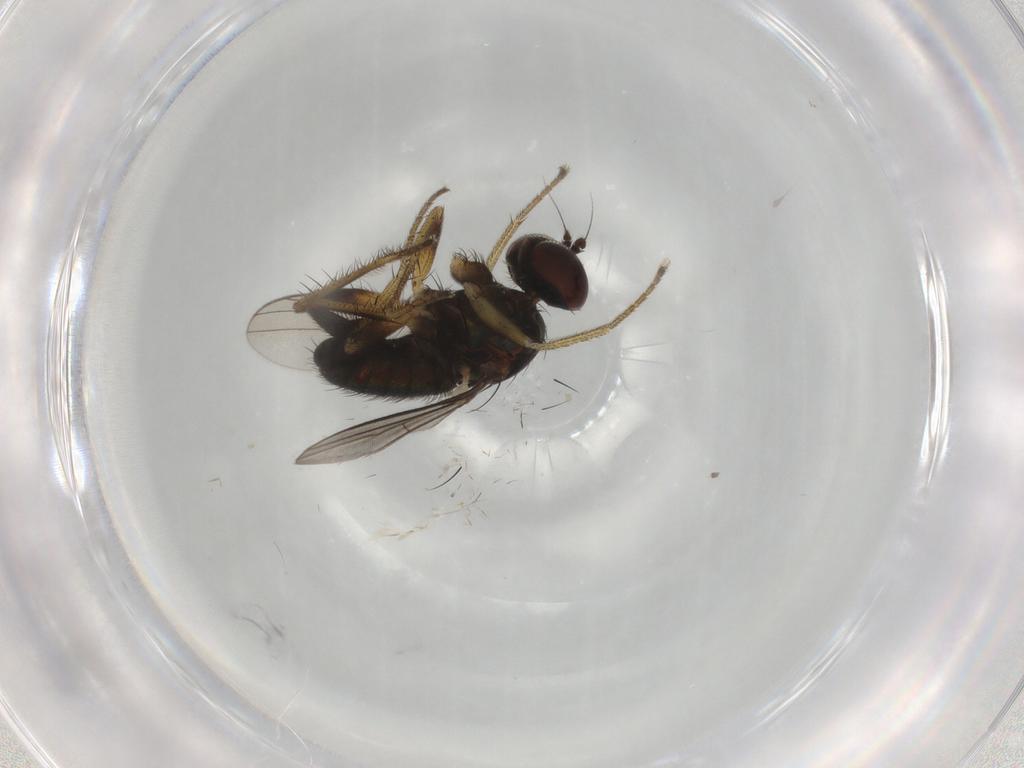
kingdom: Animalia
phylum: Arthropoda
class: Insecta
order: Diptera
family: Dolichopodidae
